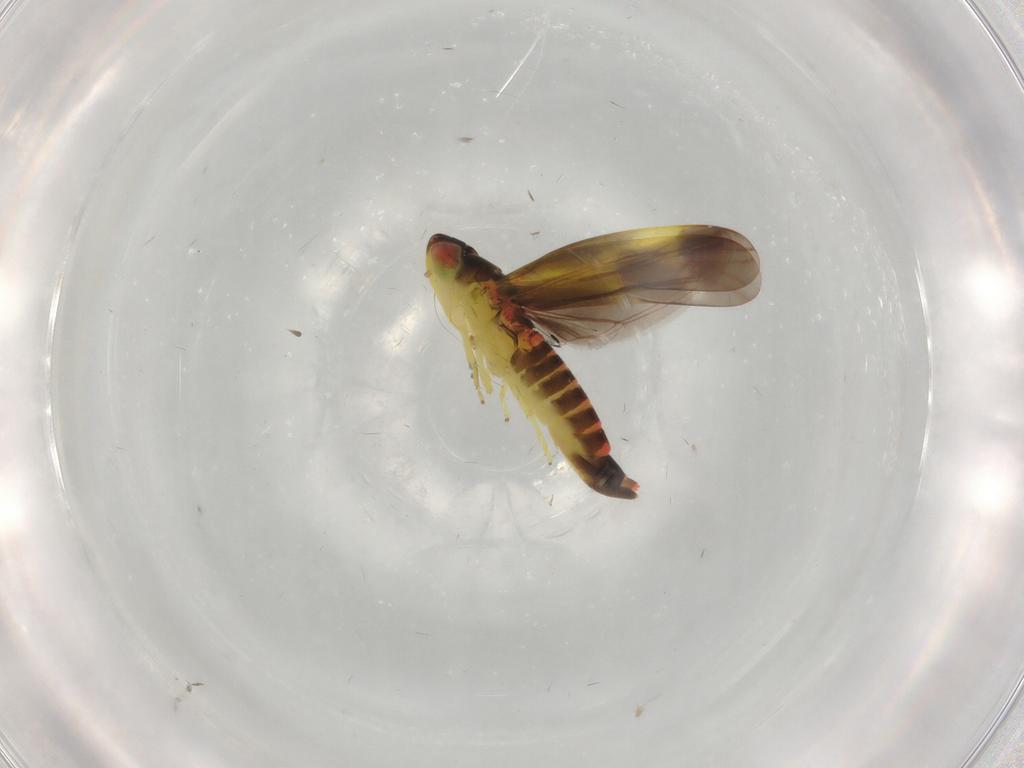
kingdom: Animalia
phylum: Arthropoda
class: Insecta
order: Hemiptera
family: Cicadellidae
